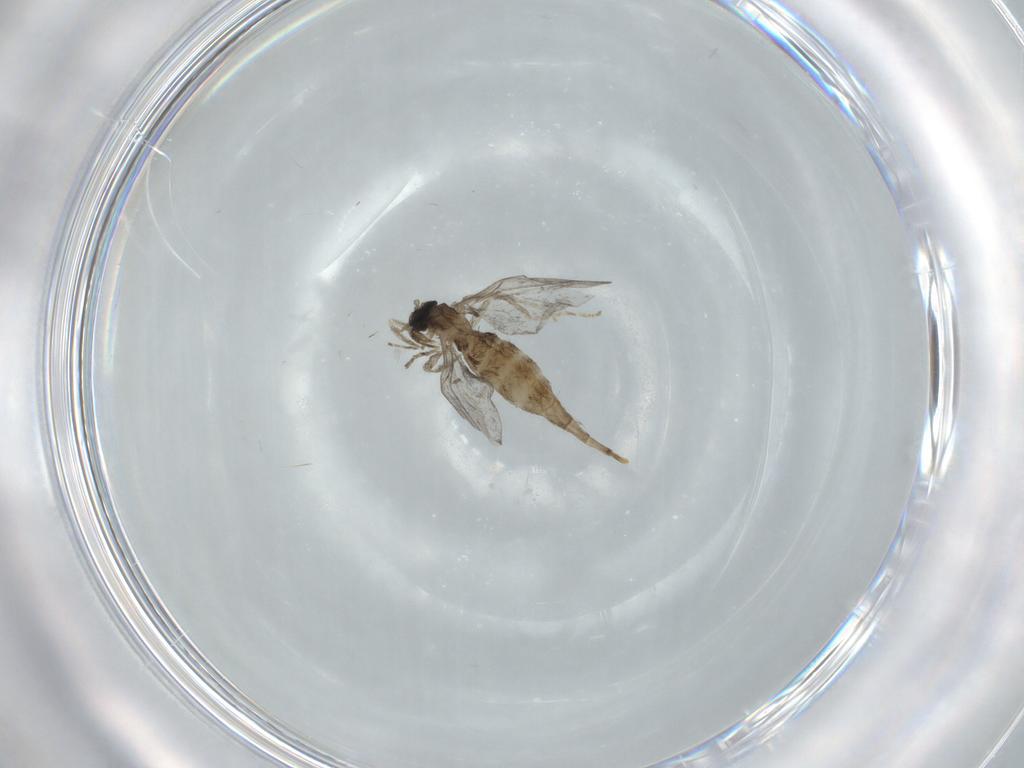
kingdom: Animalia
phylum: Arthropoda
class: Insecta
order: Diptera
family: Cecidomyiidae
